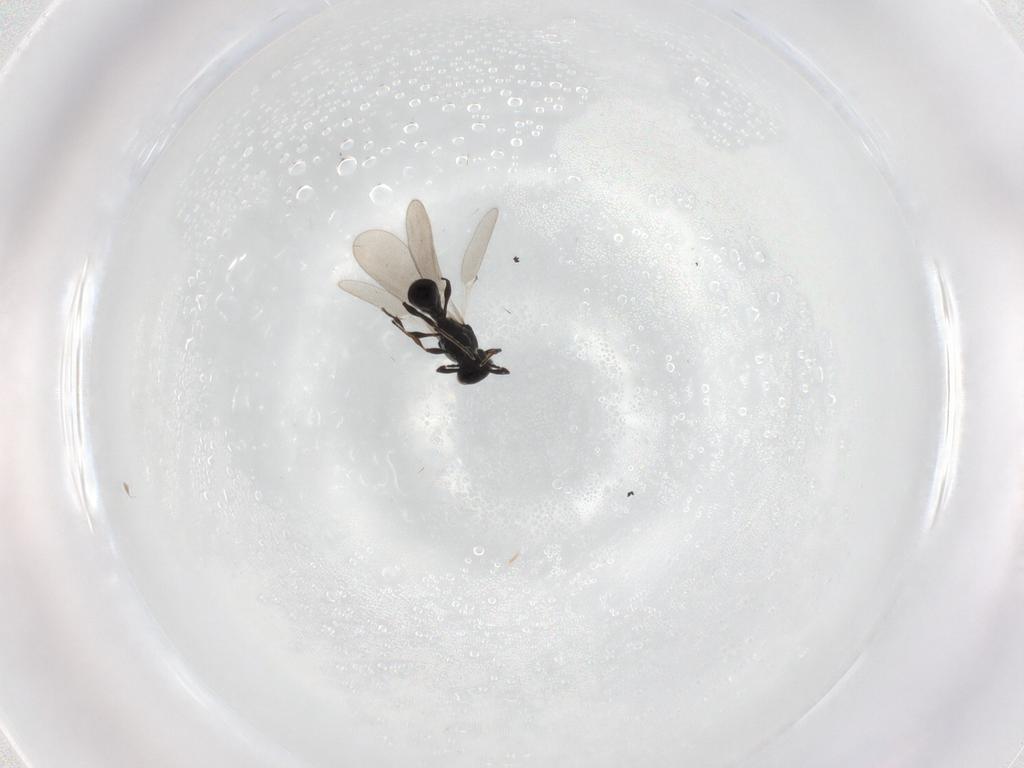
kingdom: Animalia
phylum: Arthropoda
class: Insecta
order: Hymenoptera
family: Platygastridae
